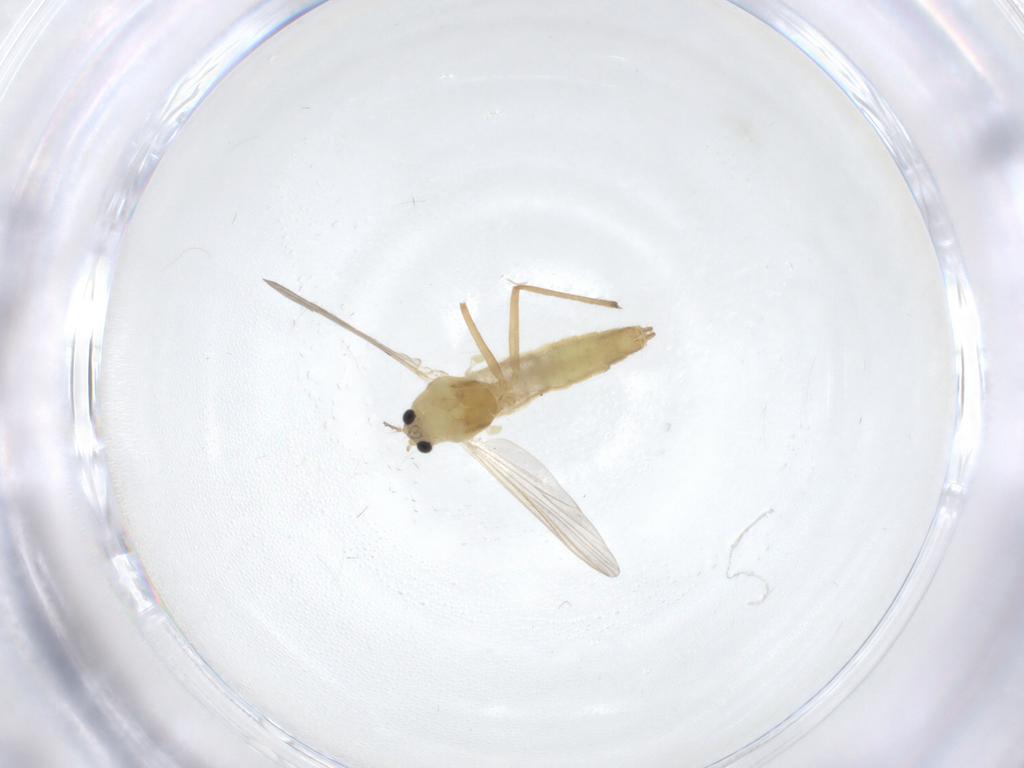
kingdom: Animalia
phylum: Arthropoda
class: Insecta
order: Diptera
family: Chironomidae
